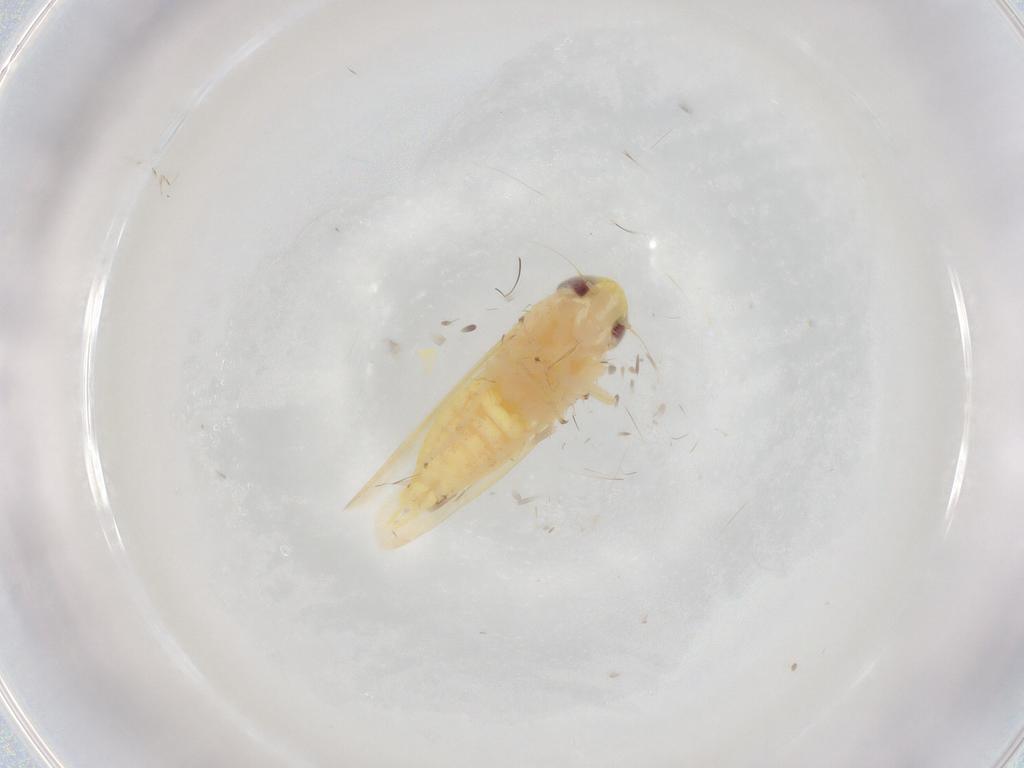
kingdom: Animalia
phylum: Arthropoda
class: Insecta
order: Hemiptera
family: Cicadellidae
